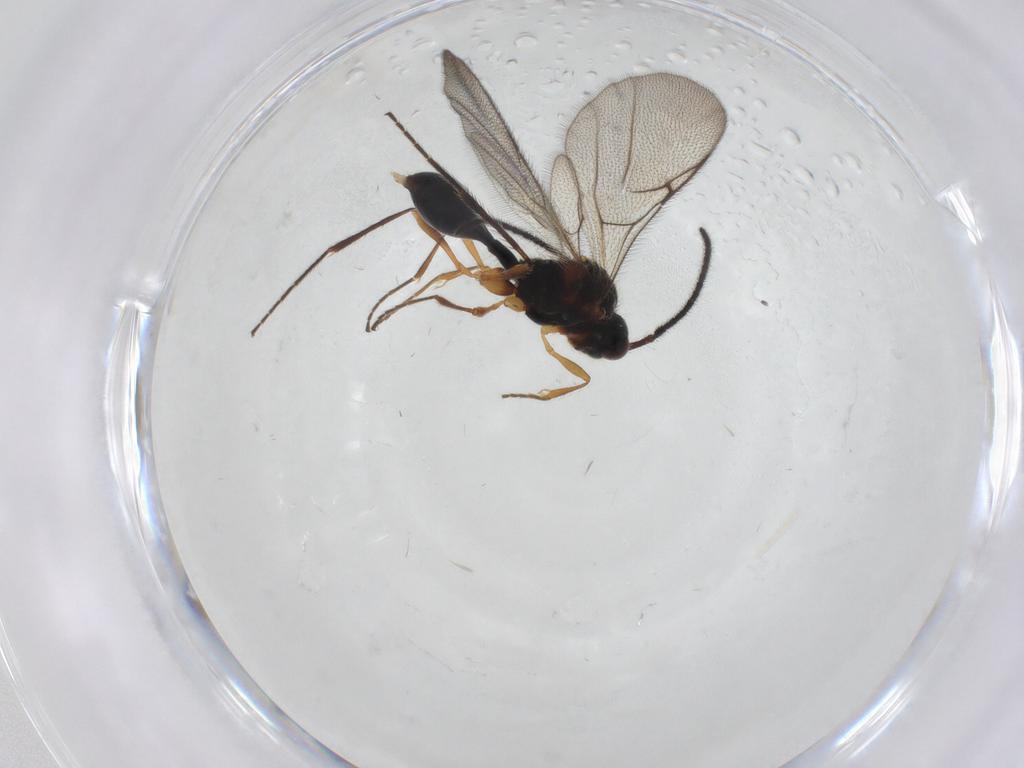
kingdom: Animalia
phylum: Arthropoda
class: Insecta
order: Hymenoptera
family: Diapriidae
